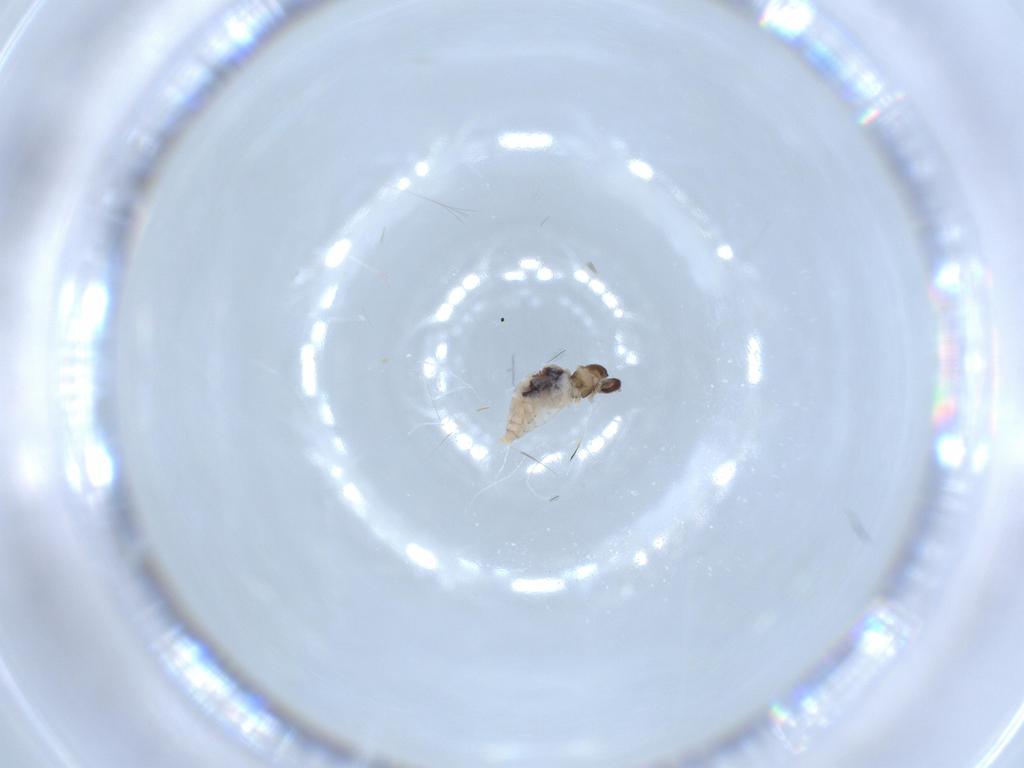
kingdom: Animalia
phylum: Arthropoda
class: Insecta
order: Diptera
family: Cecidomyiidae
